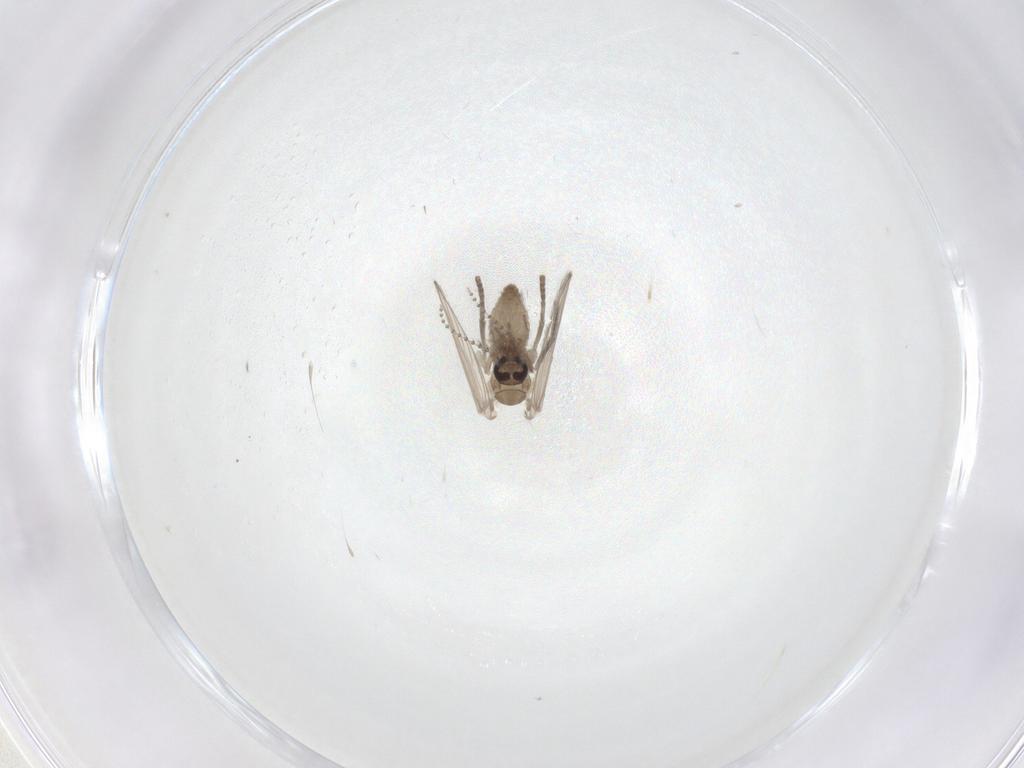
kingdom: Animalia
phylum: Arthropoda
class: Insecta
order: Diptera
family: Psychodidae
